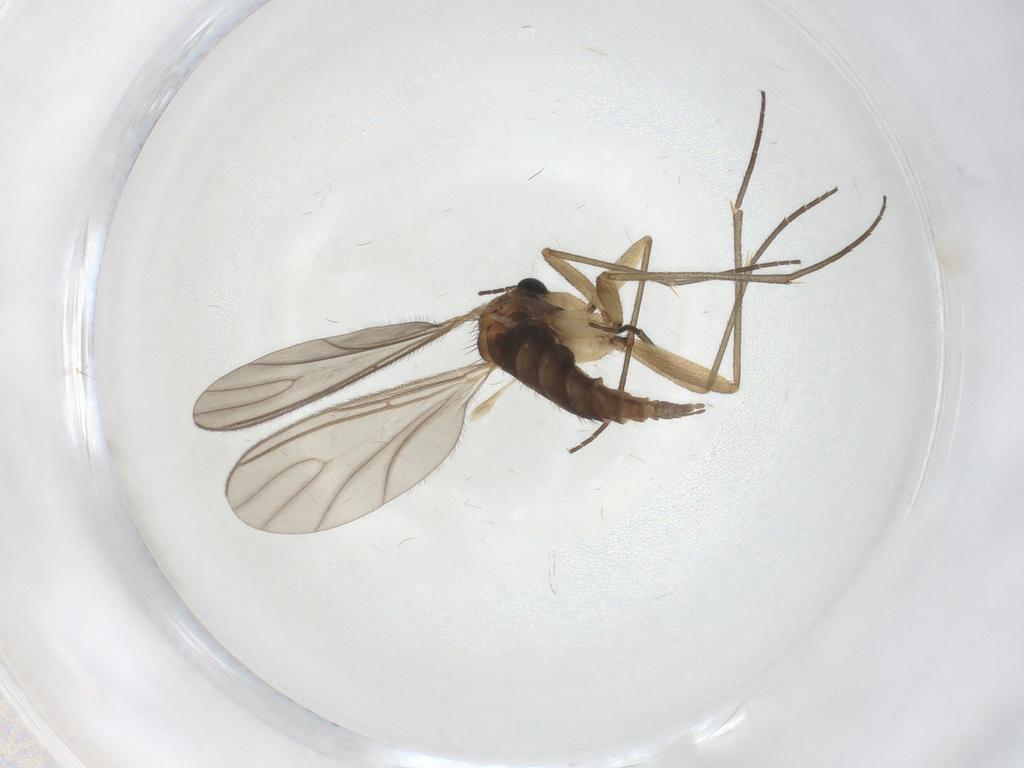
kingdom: Animalia
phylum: Arthropoda
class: Insecta
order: Diptera
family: Sciaridae
